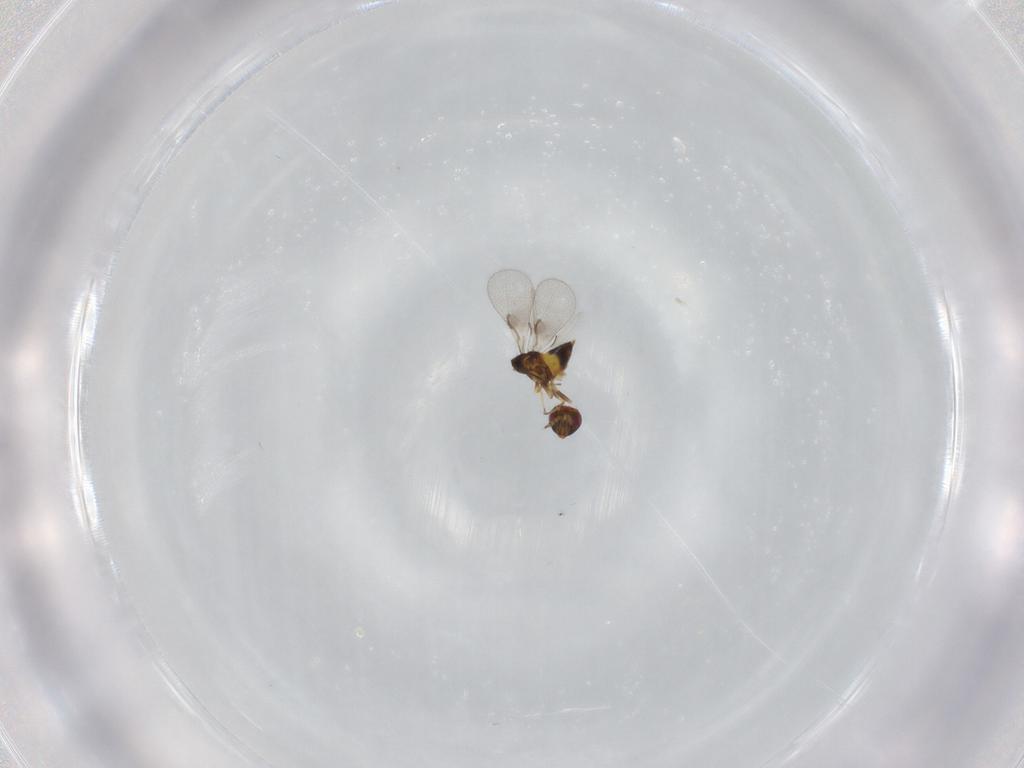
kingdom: Animalia
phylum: Arthropoda
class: Insecta
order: Hymenoptera
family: Trichogrammatidae
